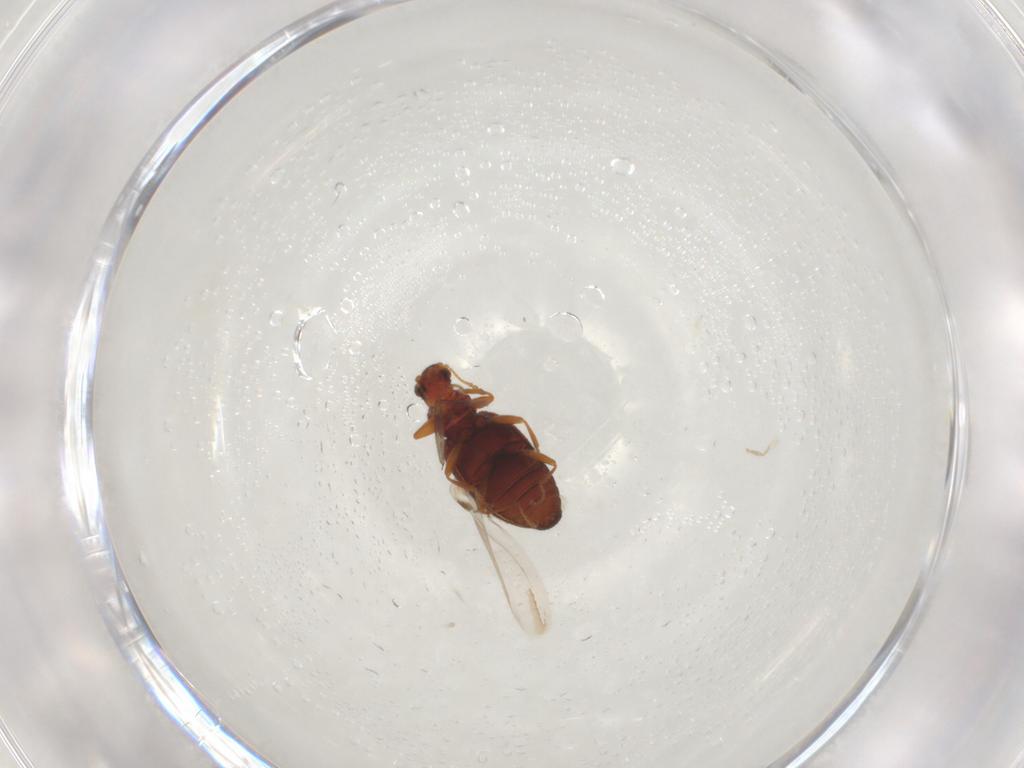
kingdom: Animalia
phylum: Arthropoda
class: Insecta
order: Coleoptera
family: Latridiidae
